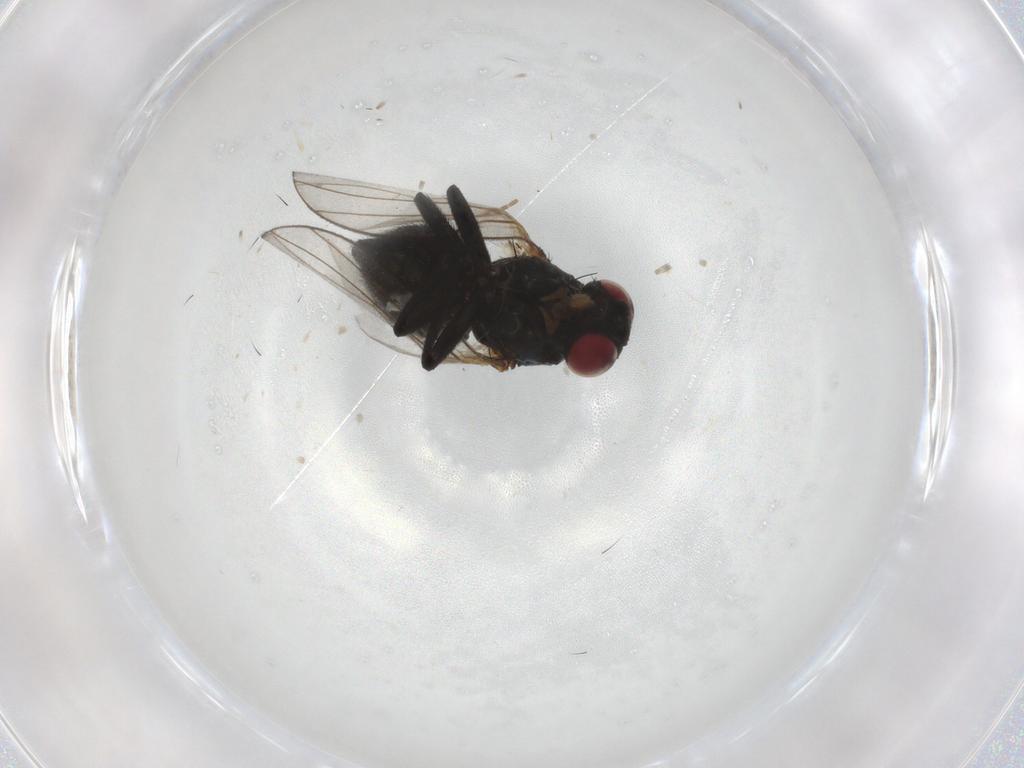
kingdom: Animalia
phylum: Arthropoda
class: Insecta
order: Diptera
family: Agromyzidae
